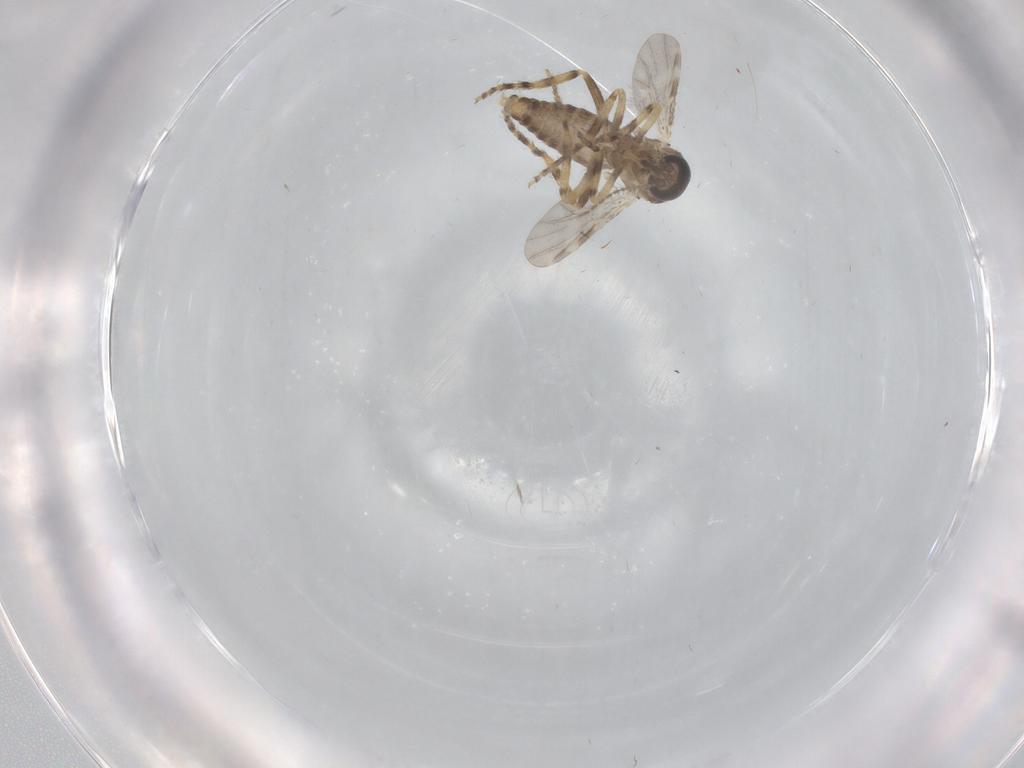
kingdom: Animalia
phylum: Arthropoda
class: Insecta
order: Diptera
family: Ceratopogonidae
